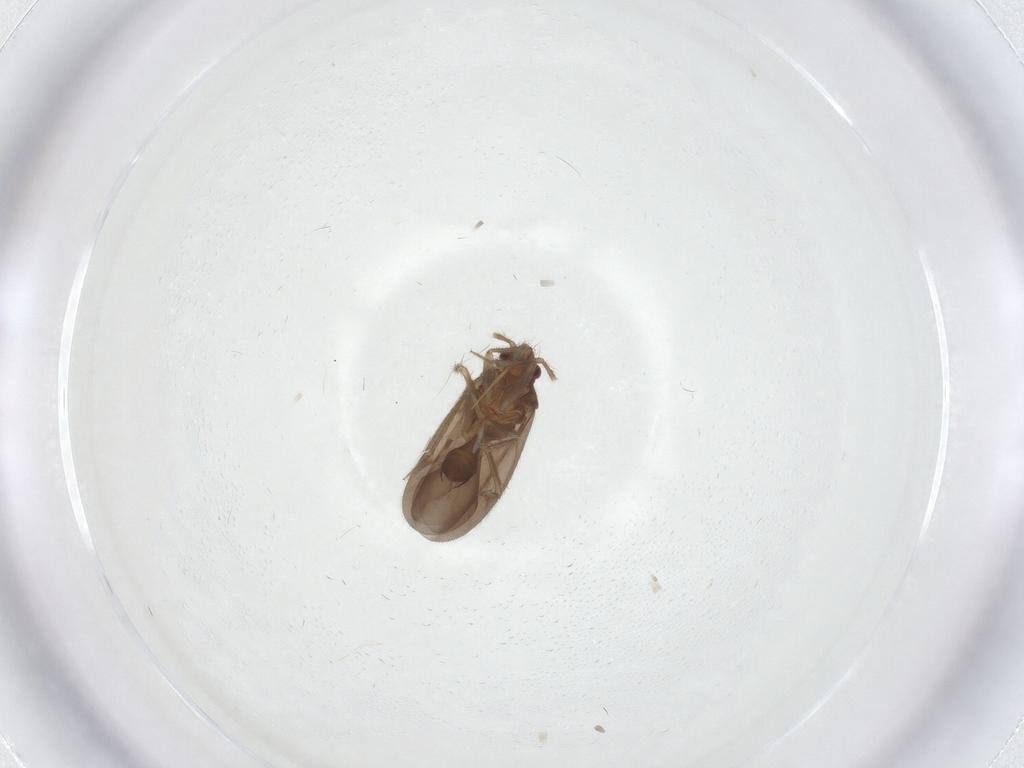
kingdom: Animalia
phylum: Arthropoda
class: Insecta
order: Hemiptera
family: Ceratocombidae
